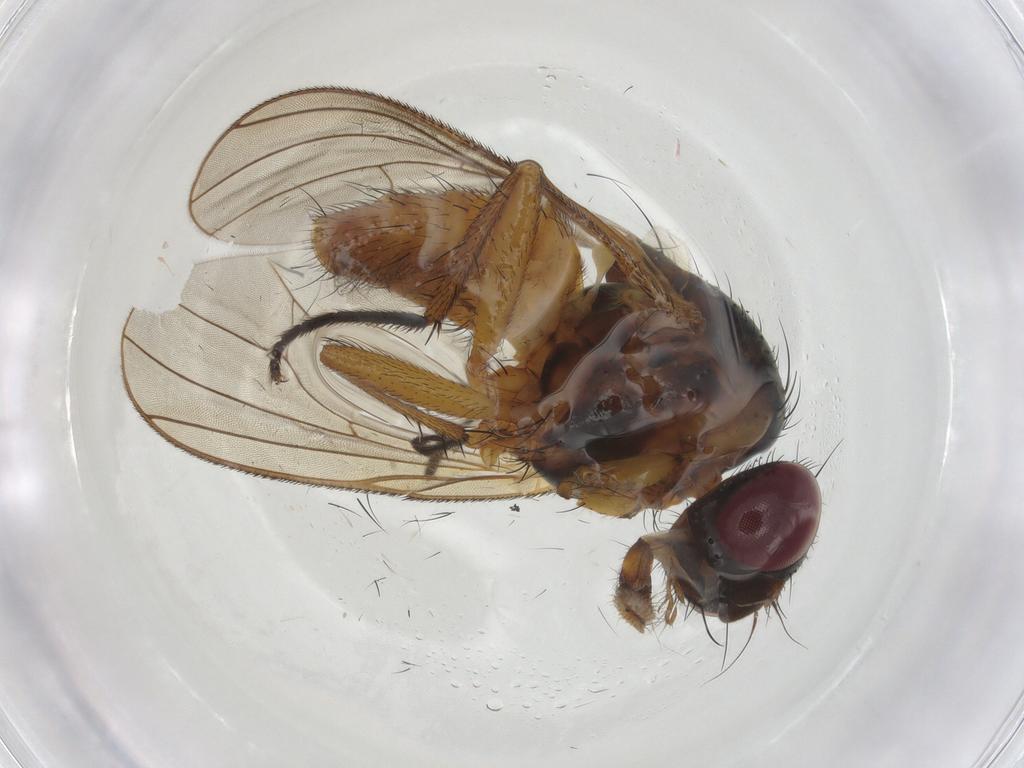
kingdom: Animalia
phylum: Arthropoda
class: Insecta
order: Diptera
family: Fannia
